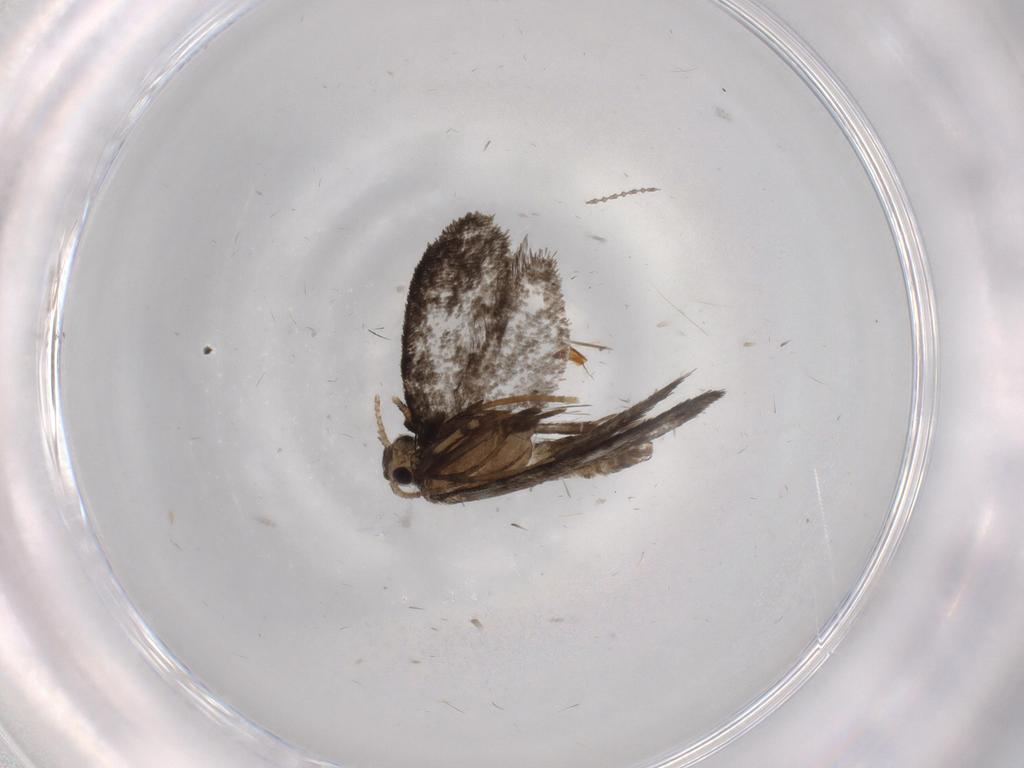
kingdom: Animalia
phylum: Arthropoda
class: Insecta
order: Lepidoptera
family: Psychidae
